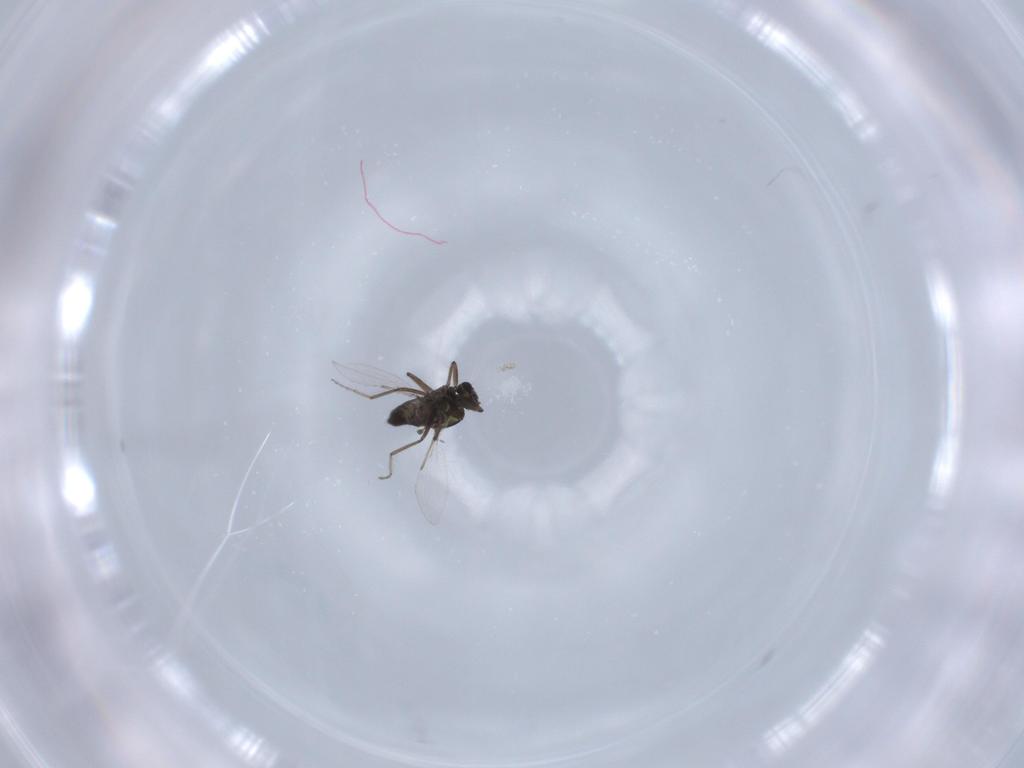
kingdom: Animalia
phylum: Arthropoda
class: Insecta
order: Diptera
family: Ceratopogonidae
